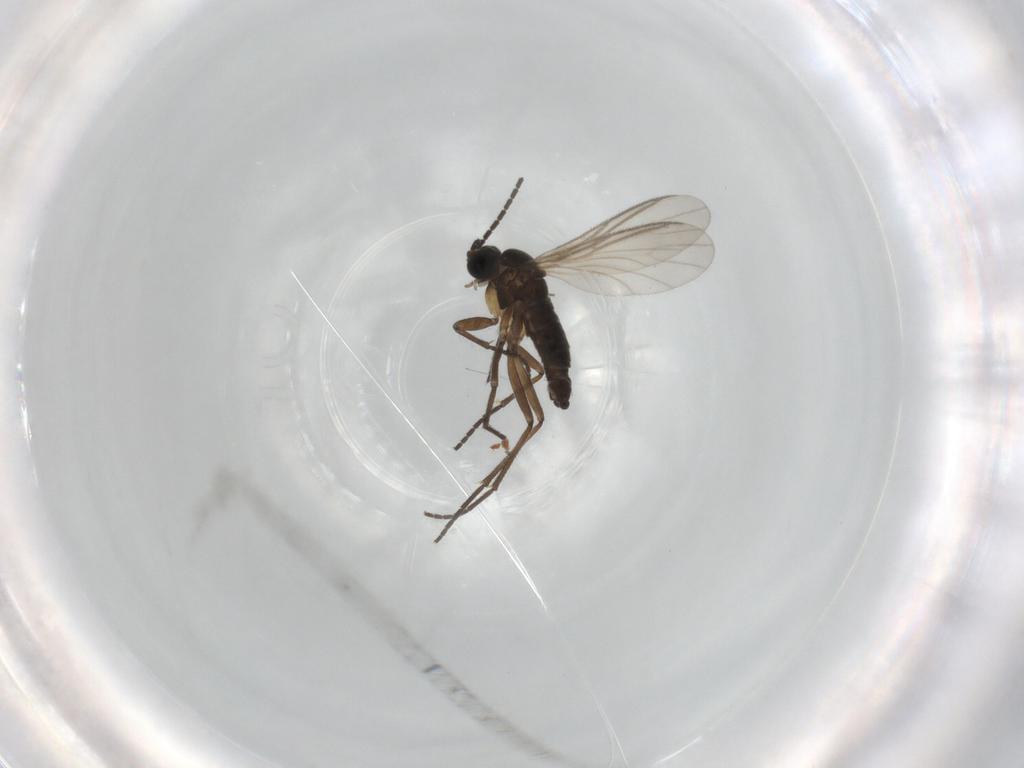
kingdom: Animalia
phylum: Arthropoda
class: Insecta
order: Diptera
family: Sciaridae
